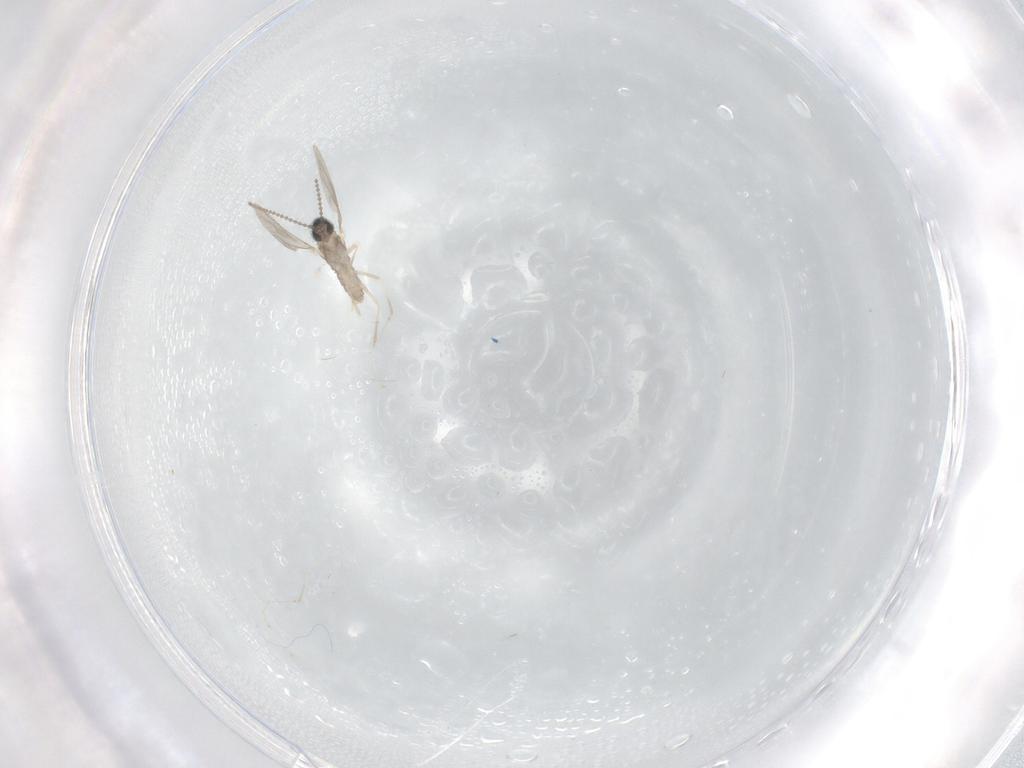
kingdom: Animalia
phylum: Arthropoda
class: Insecta
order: Diptera
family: Cecidomyiidae
